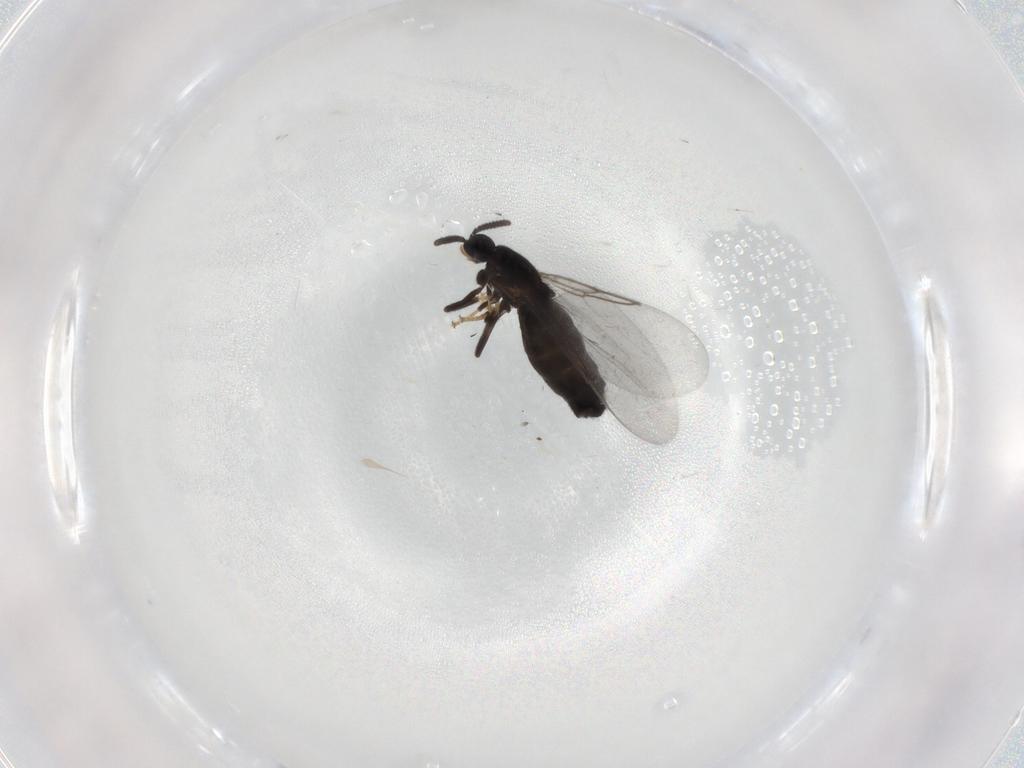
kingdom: Animalia
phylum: Arthropoda
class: Insecta
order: Diptera
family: Scatopsidae
